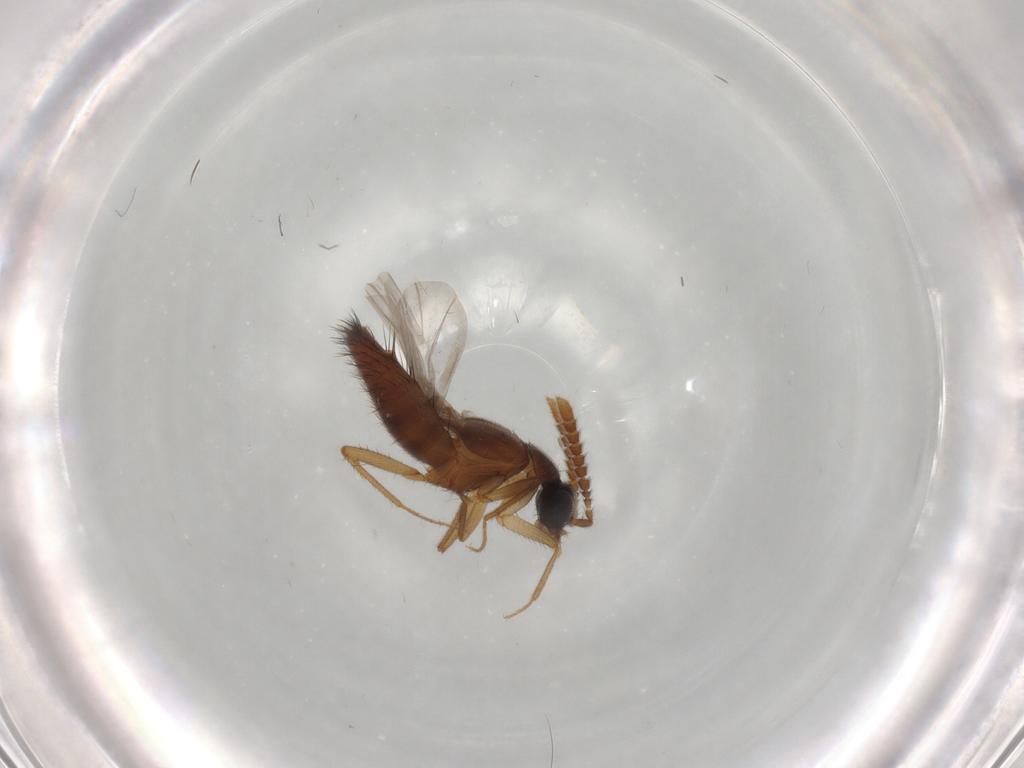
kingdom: Animalia
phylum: Arthropoda
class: Insecta
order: Coleoptera
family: Staphylinidae
